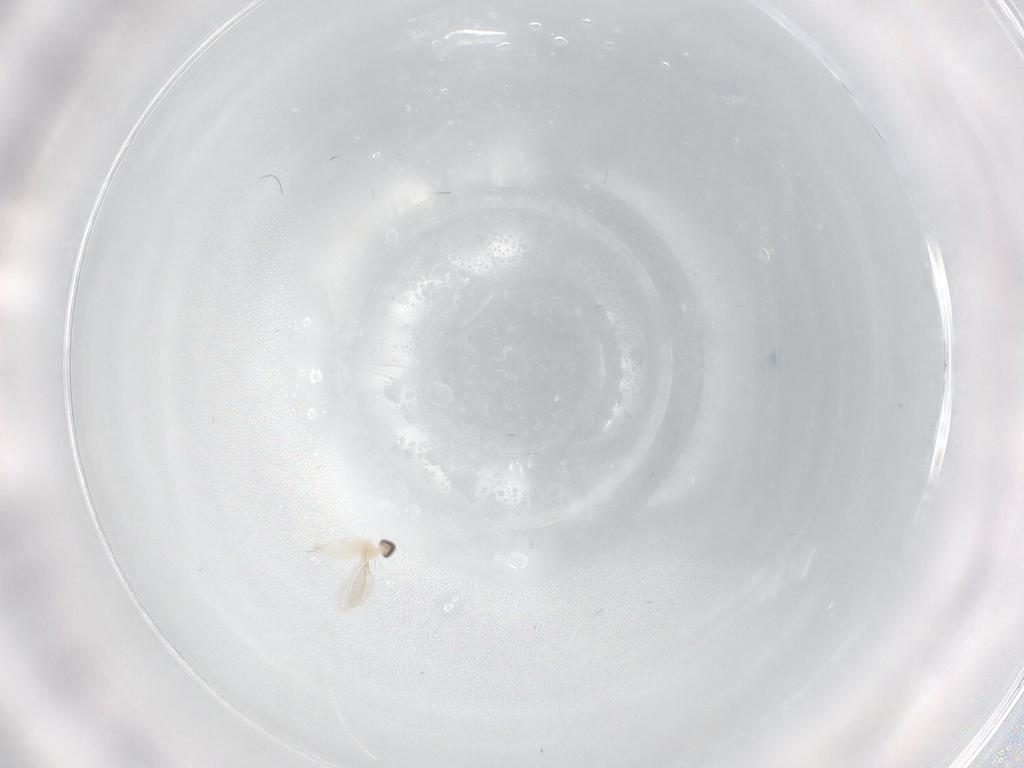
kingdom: Animalia
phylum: Arthropoda
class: Insecta
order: Diptera
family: Cecidomyiidae
